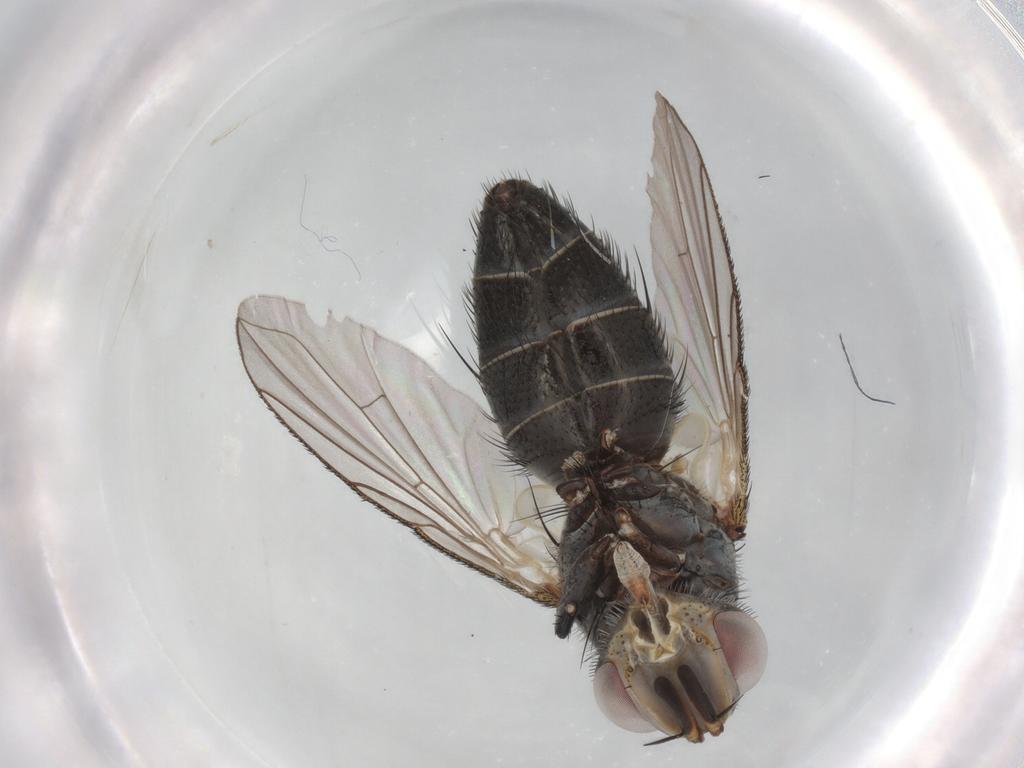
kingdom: Animalia
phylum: Arthropoda
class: Insecta
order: Diptera
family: Tachinidae
